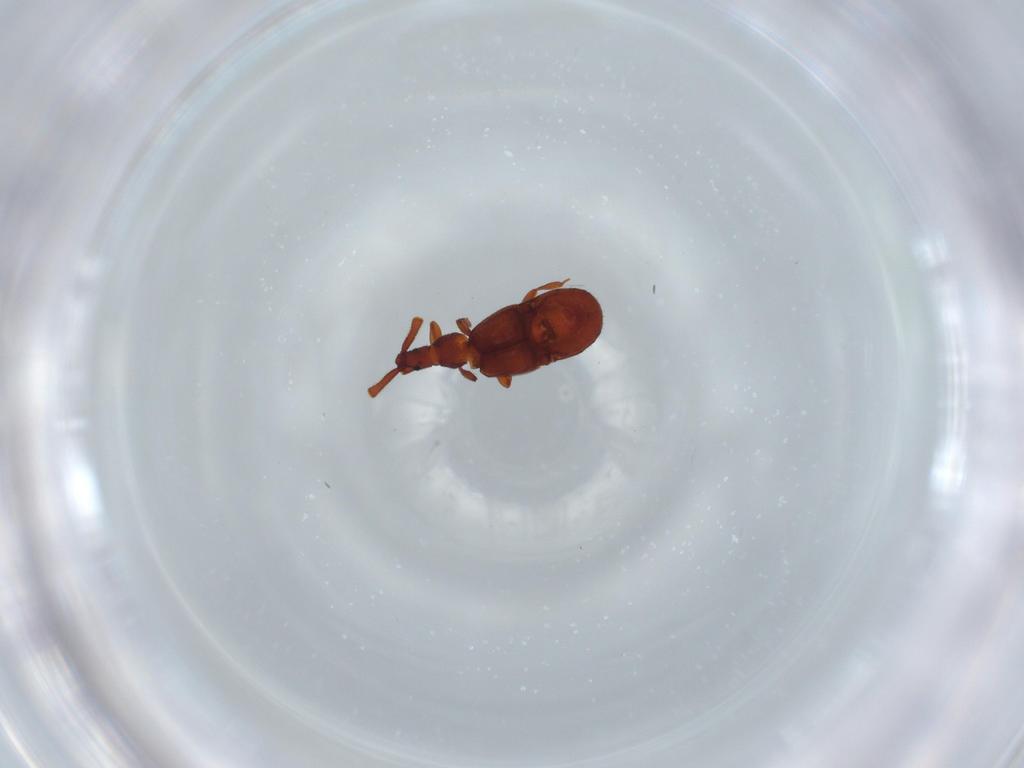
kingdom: Animalia
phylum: Arthropoda
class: Insecta
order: Coleoptera
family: Staphylinidae
